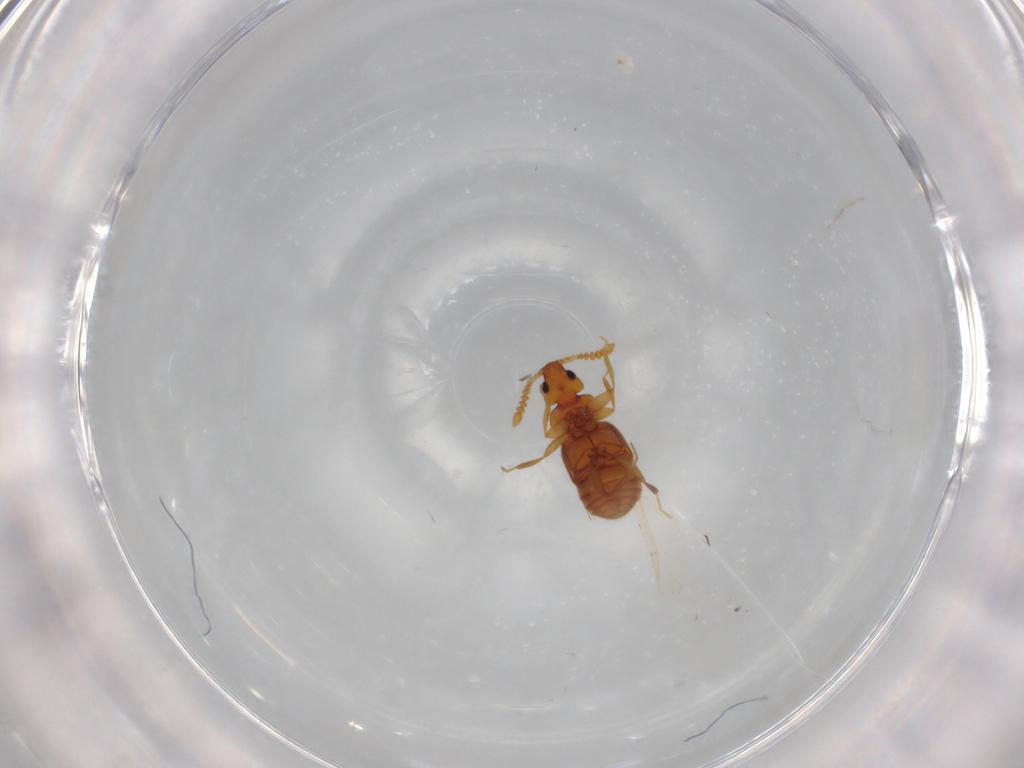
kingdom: Animalia
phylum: Arthropoda
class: Insecta
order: Coleoptera
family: Staphylinidae
